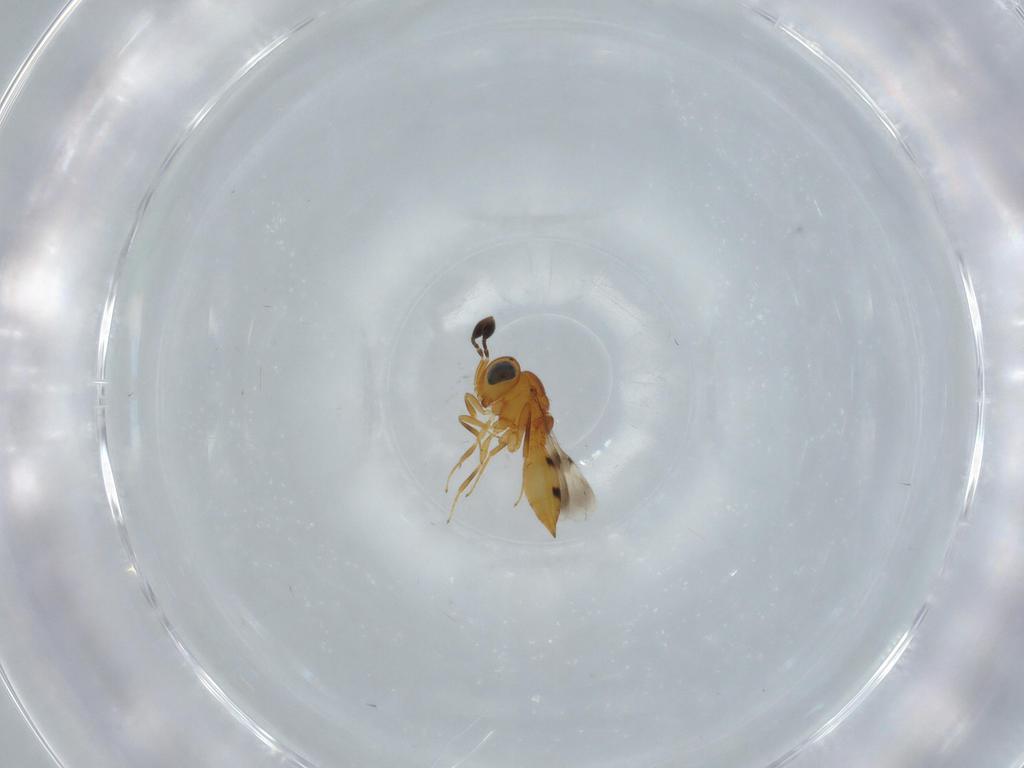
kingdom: Animalia
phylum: Arthropoda
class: Insecta
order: Hymenoptera
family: Scelionidae
